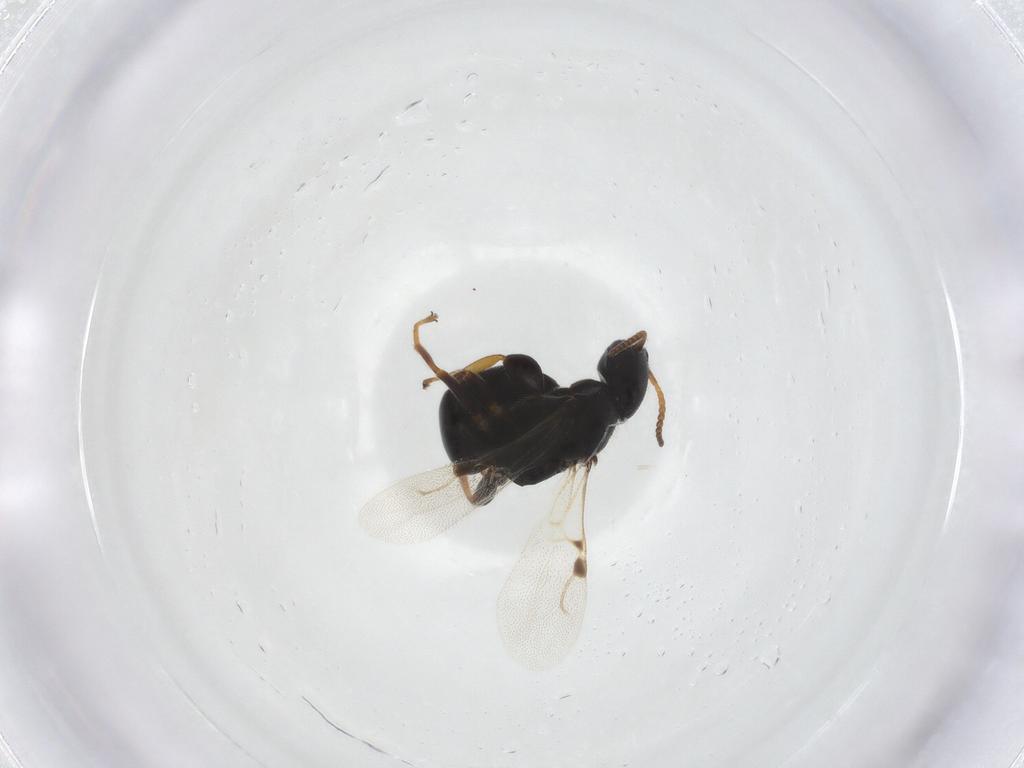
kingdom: Animalia
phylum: Arthropoda
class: Insecta
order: Hymenoptera
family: Bethylidae
